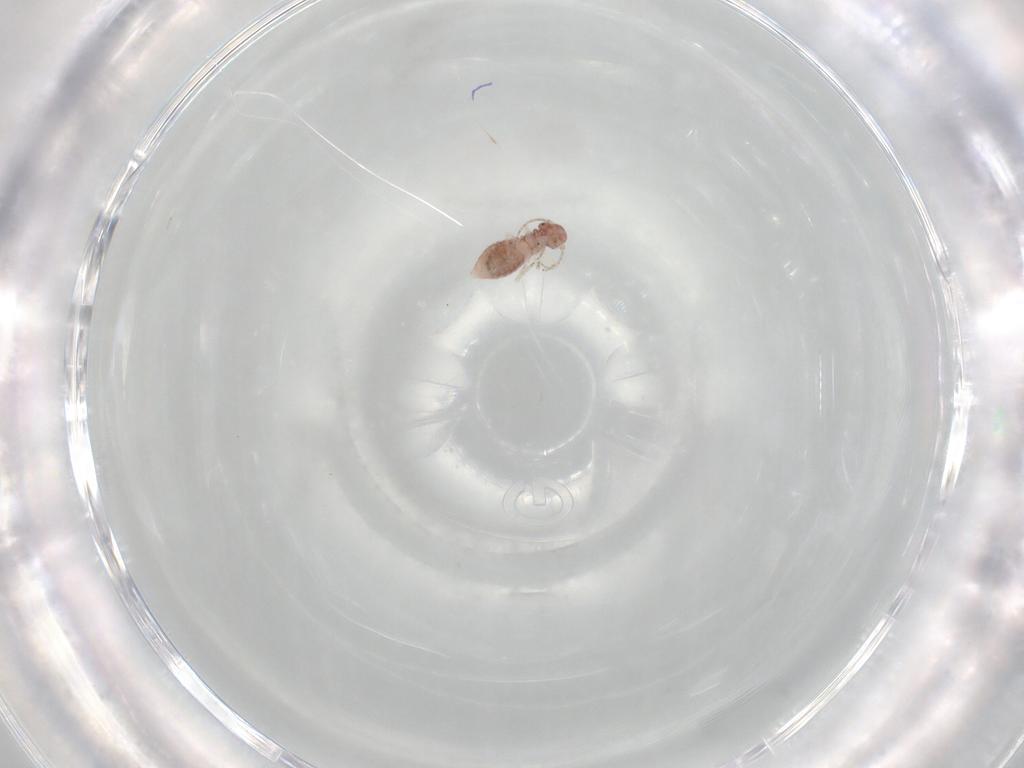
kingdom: Animalia
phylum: Arthropoda
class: Insecta
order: Psocodea
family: Archipsocidae
